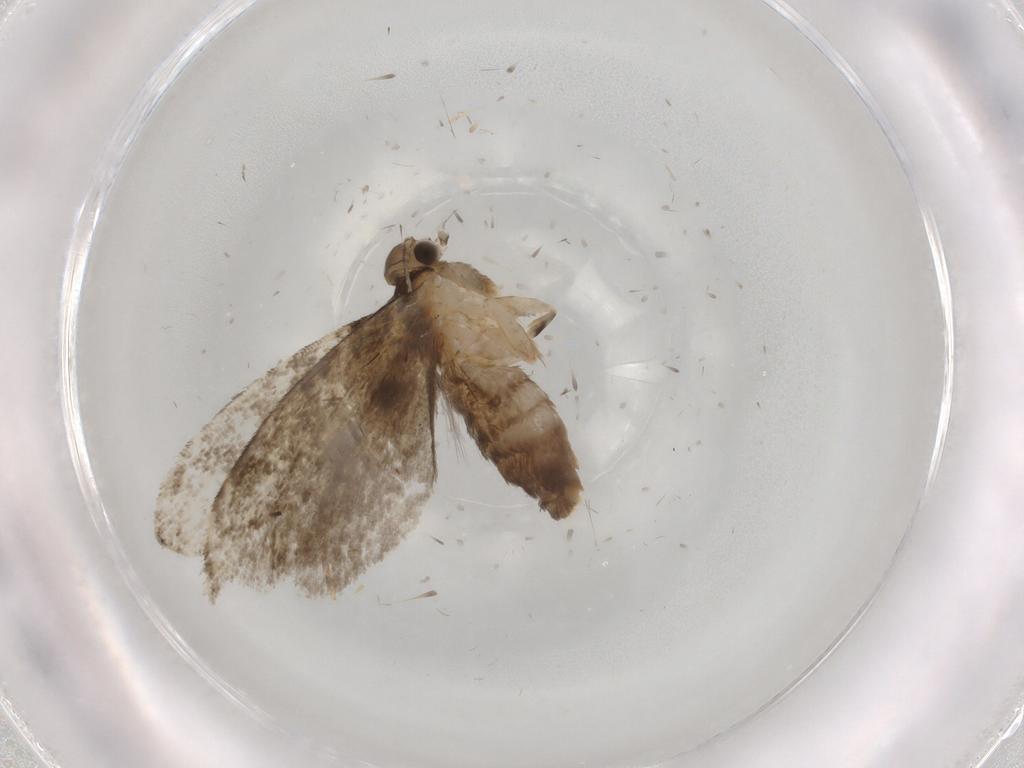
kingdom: Animalia
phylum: Arthropoda
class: Insecta
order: Lepidoptera
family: Tineidae
